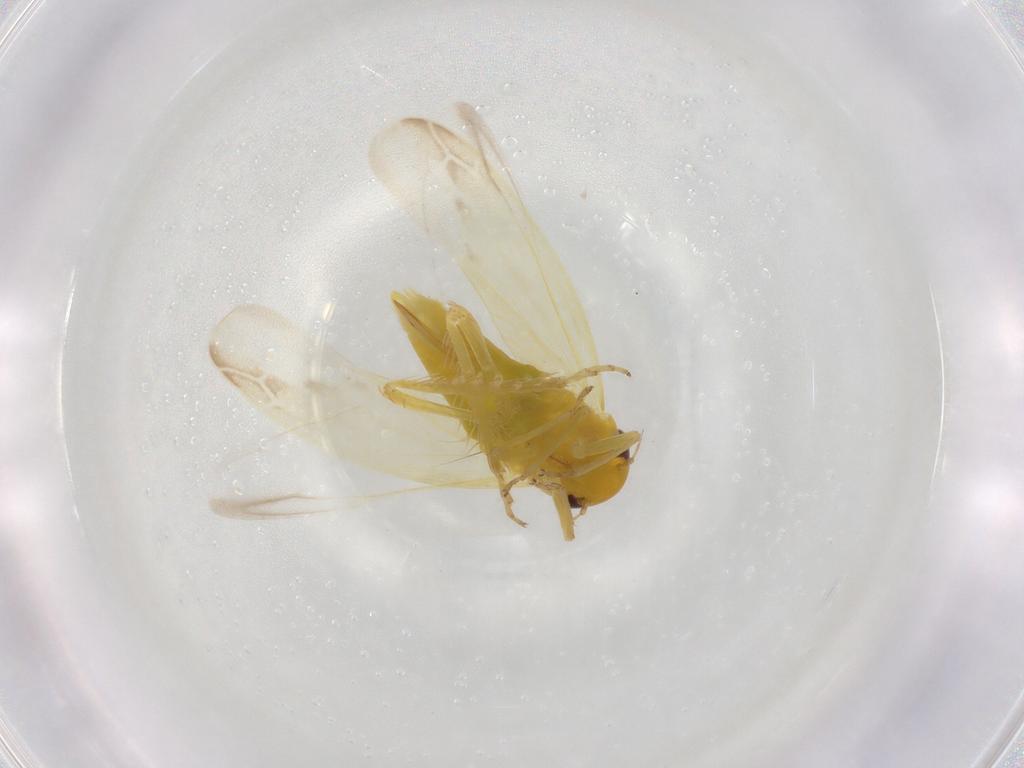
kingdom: Animalia
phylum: Arthropoda
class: Insecta
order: Hemiptera
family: Cicadellidae
